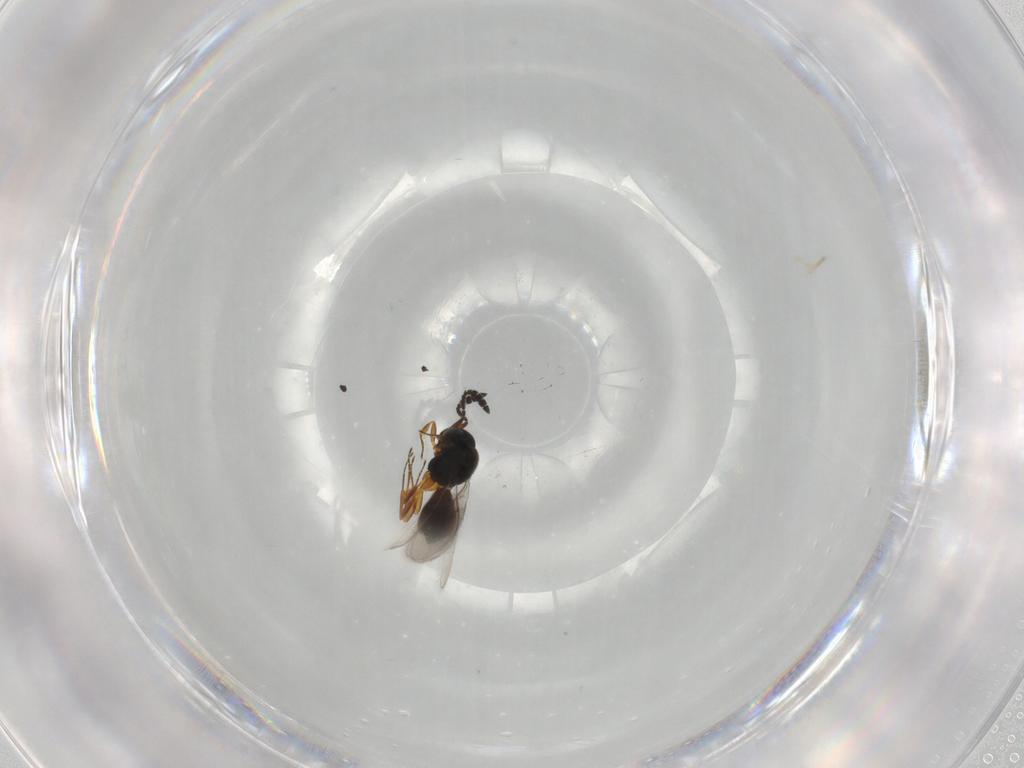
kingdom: Animalia
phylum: Arthropoda
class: Insecta
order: Hymenoptera
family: Scelionidae
